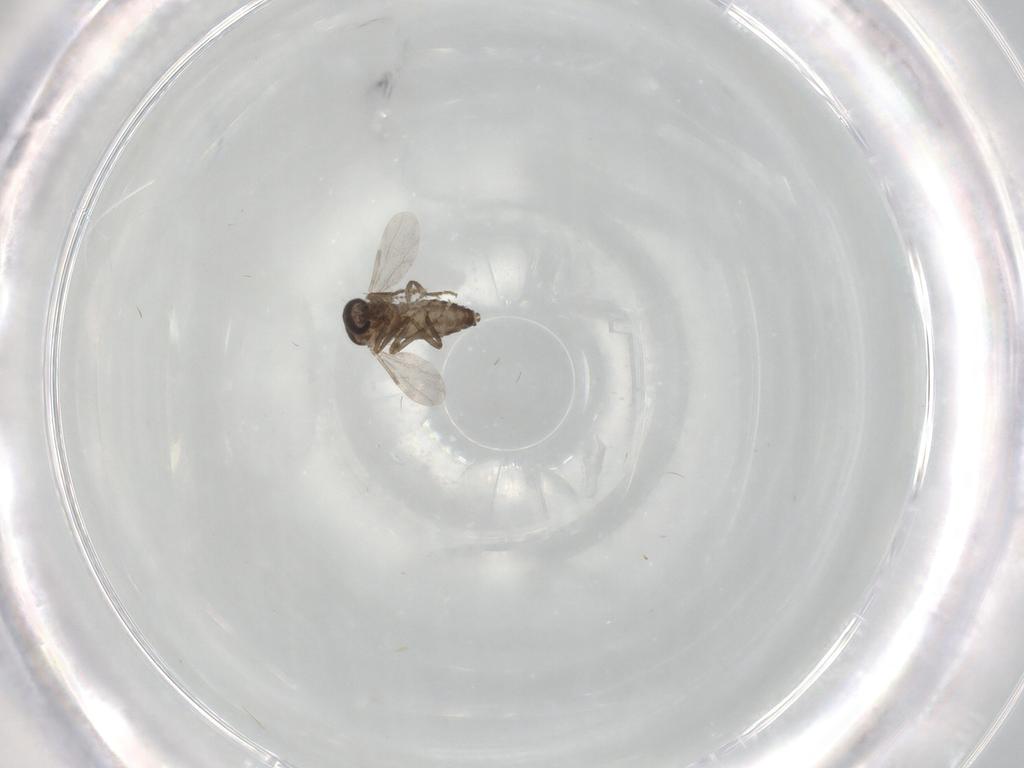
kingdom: Animalia
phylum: Arthropoda
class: Insecta
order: Diptera
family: Ceratopogonidae
